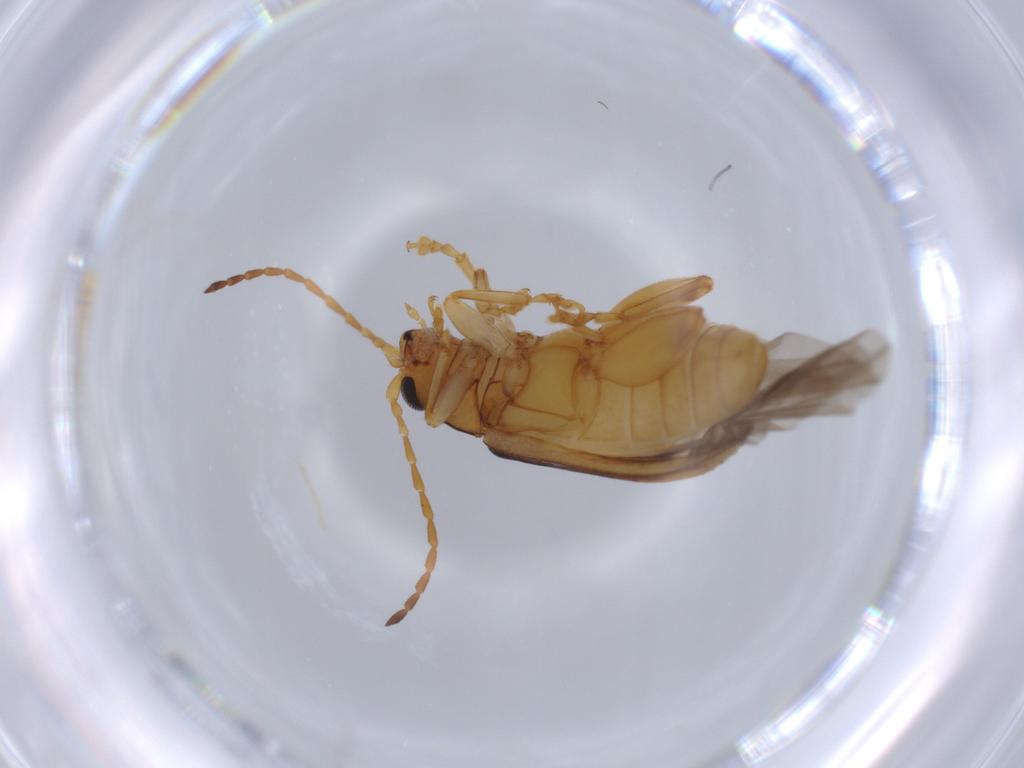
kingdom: Animalia
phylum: Arthropoda
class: Insecta
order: Coleoptera
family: Chrysomelidae
